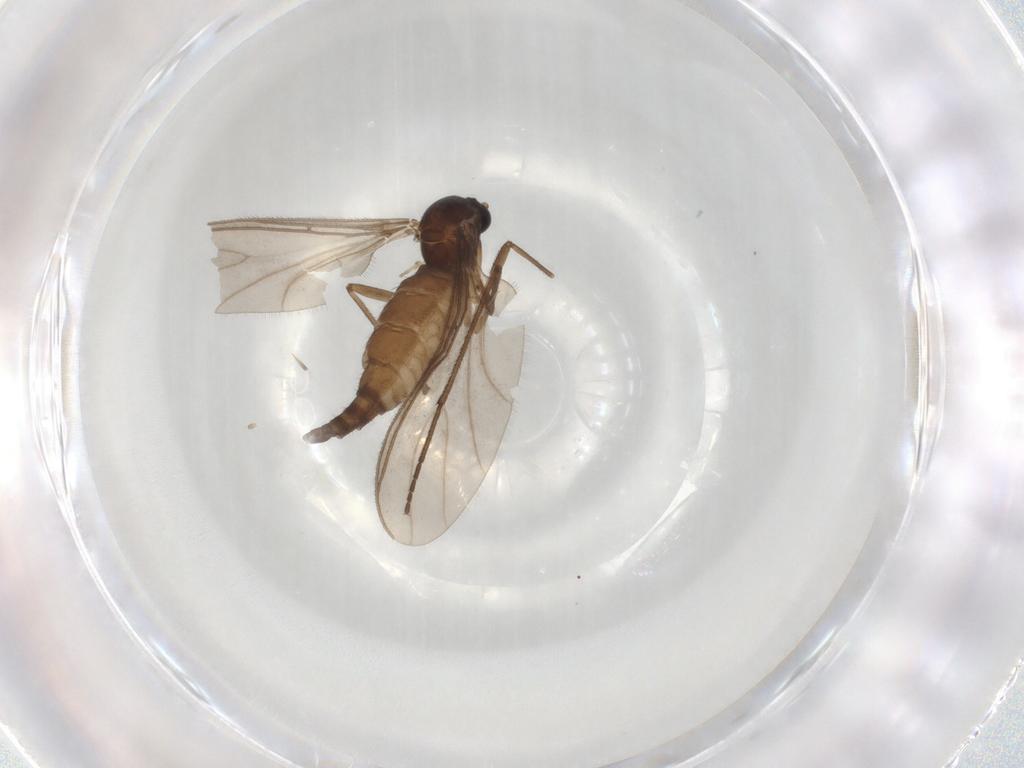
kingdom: Animalia
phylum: Arthropoda
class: Insecta
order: Diptera
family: Sciaridae
